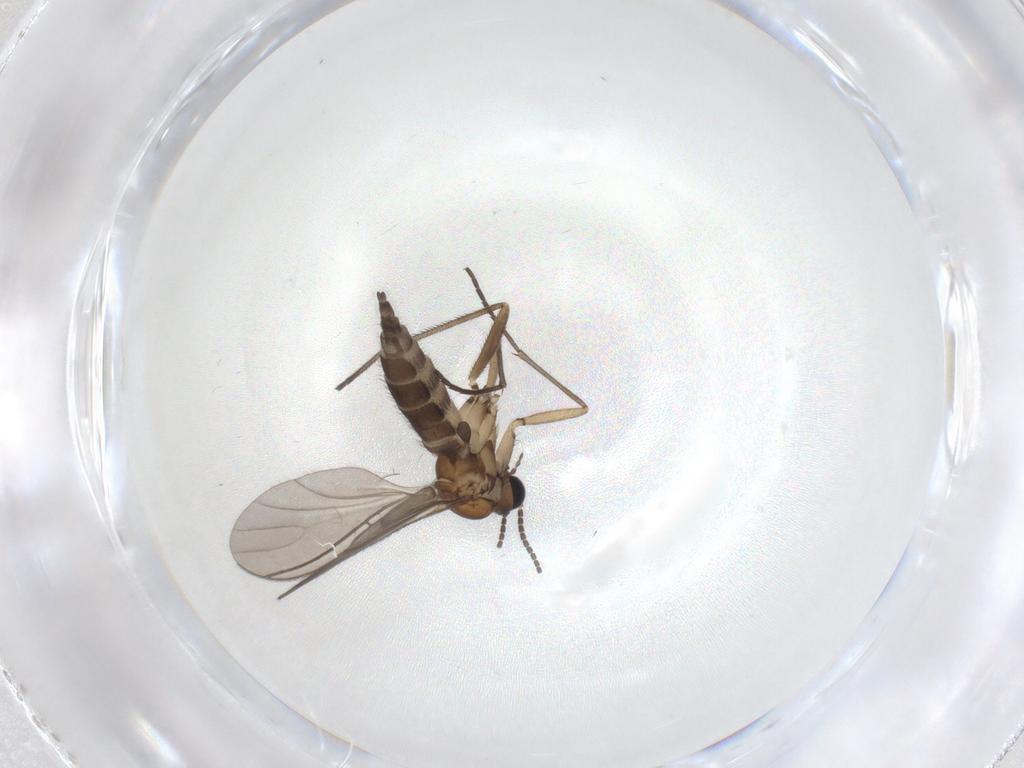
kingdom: Animalia
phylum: Arthropoda
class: Insecta
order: Diptera
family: Sciaridae
